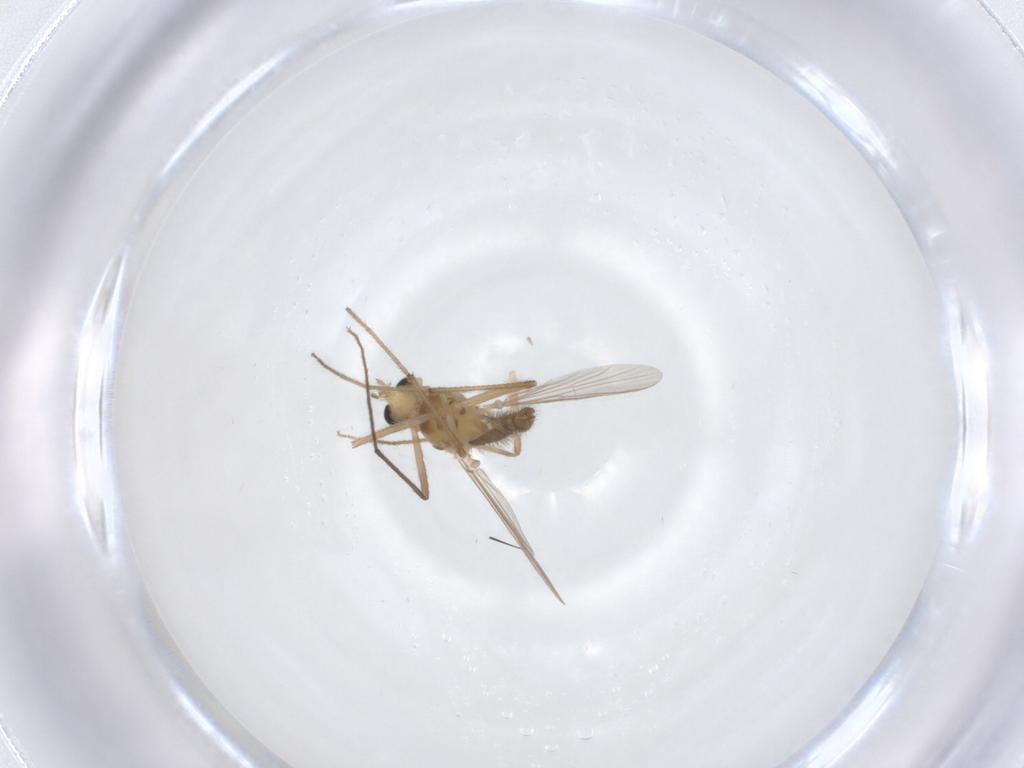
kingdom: Animalia
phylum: Arthropoda
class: Insecta
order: Diptera
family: Chironomidae
